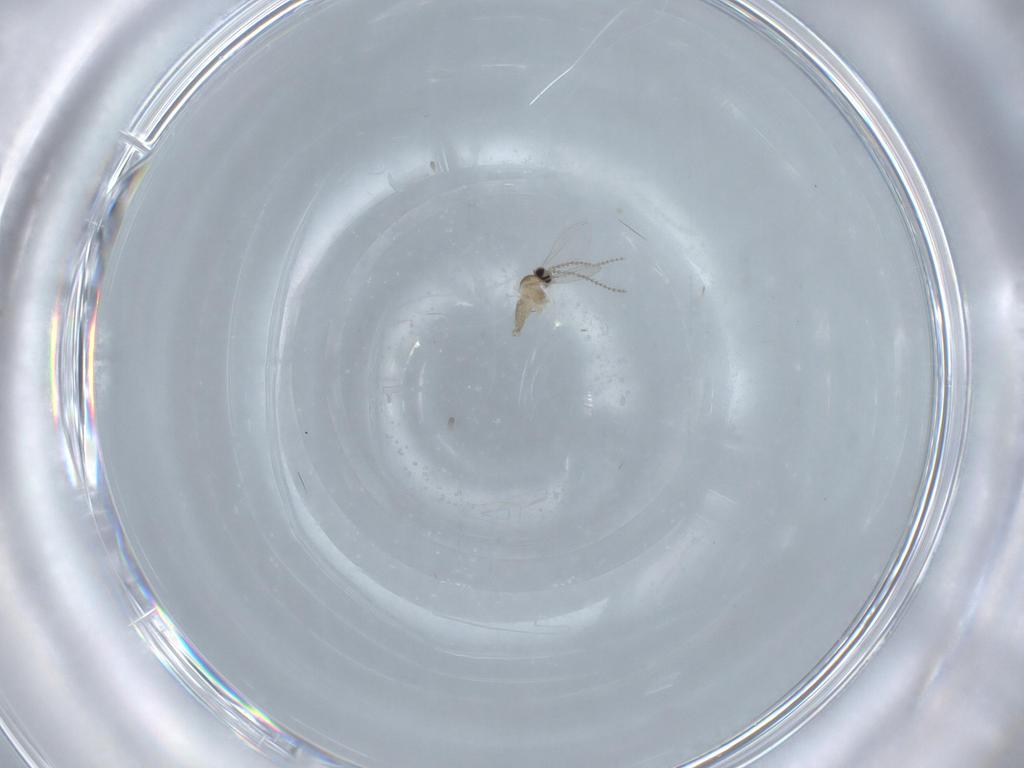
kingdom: Animalia
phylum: Arthropoda
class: Insecta
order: Diptera
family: Cecidomyiidae
